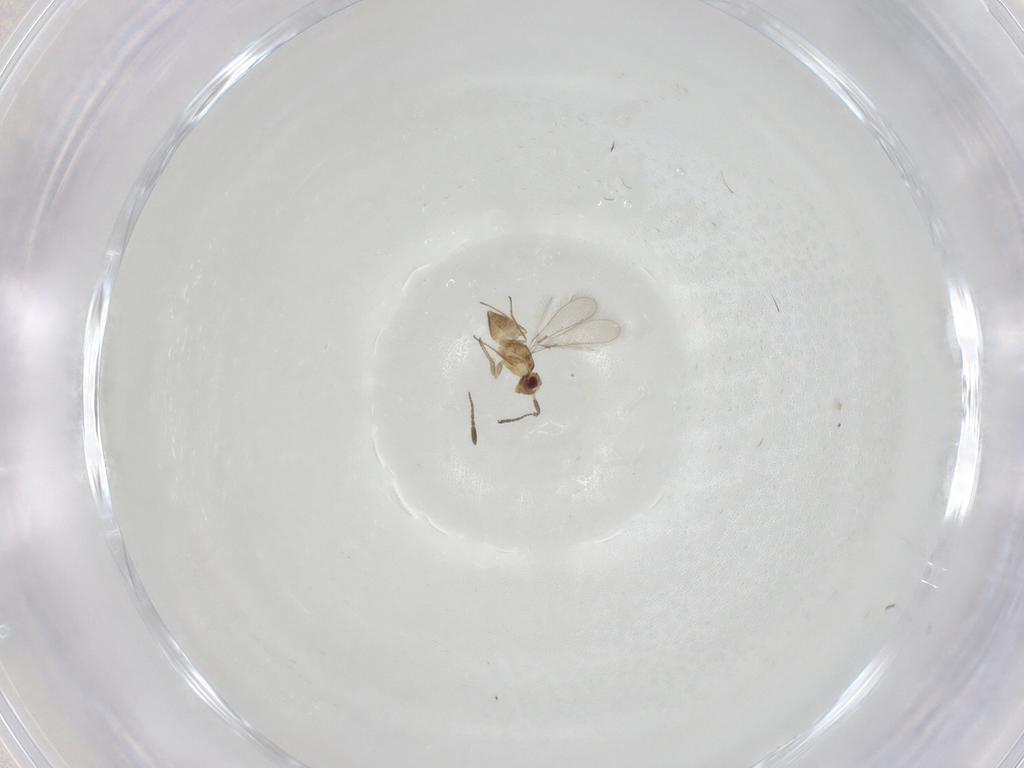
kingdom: Animalia
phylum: Arthropoda
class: Insecta
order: Hymenoptera
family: Mymaridae
